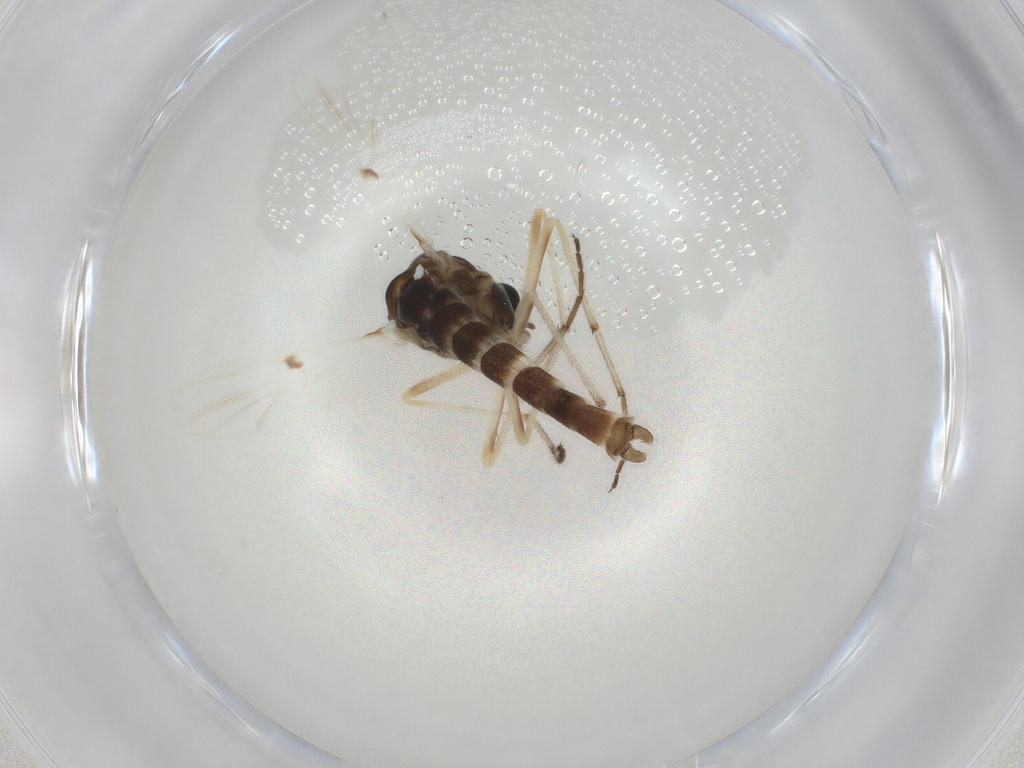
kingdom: Animalia
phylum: Arthropoda
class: Insecta
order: Diptera
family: Chironomidae
